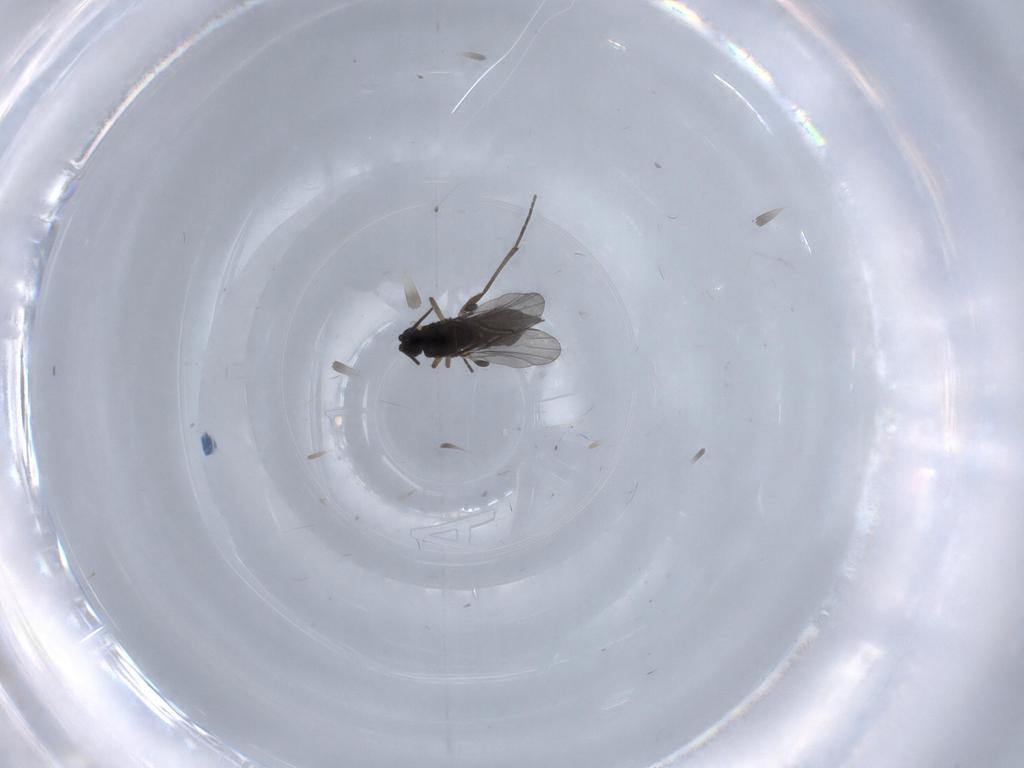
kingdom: Animalia
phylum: Arthropoda
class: Insecta
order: Diptera
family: Sciaridae
